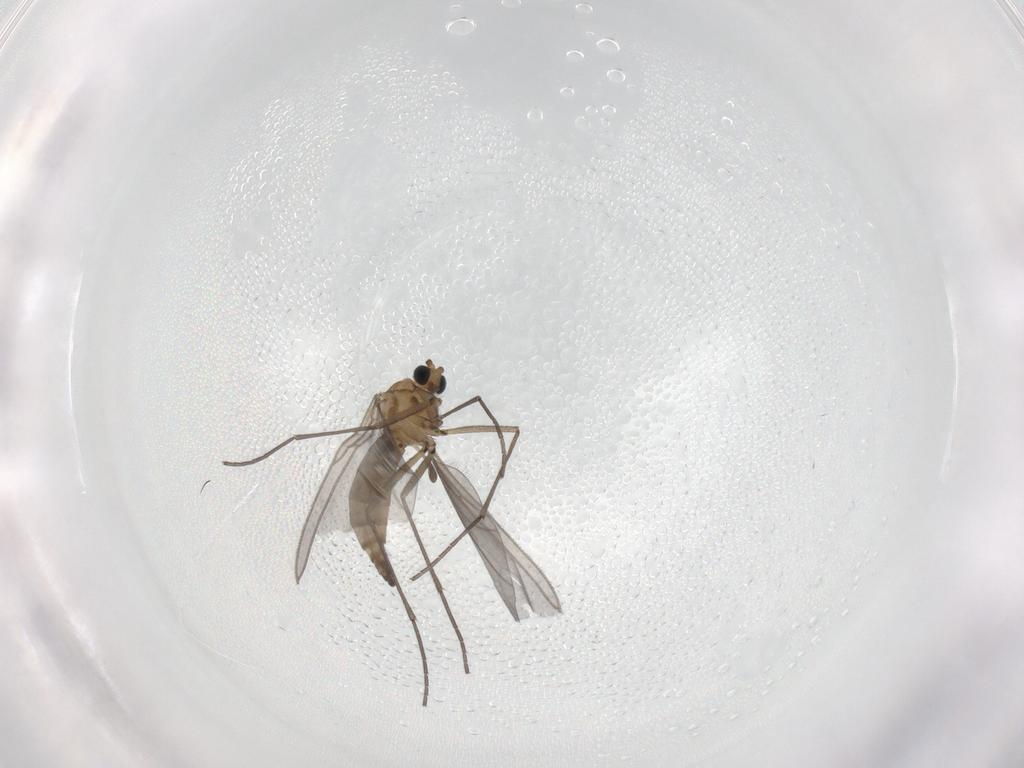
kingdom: Animalia
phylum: Arthropoda
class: Insecta
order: Diptera
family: Sciaridae
